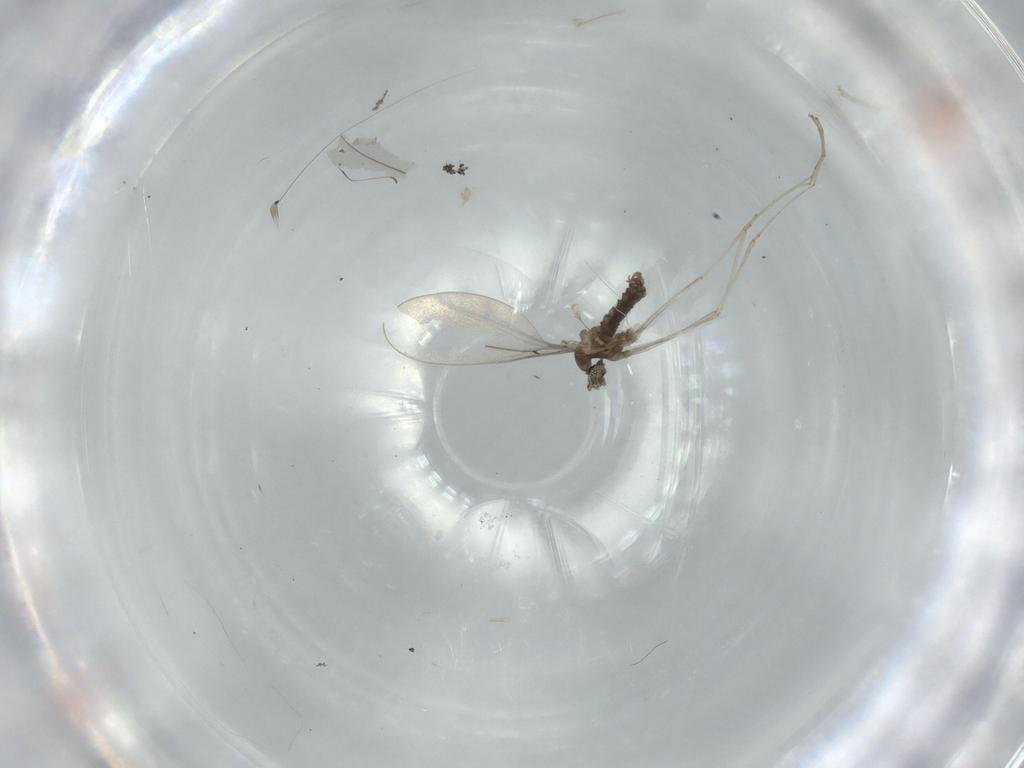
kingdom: Animalia
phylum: Arthropoda
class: Insecta
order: Diptera
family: Cecidomyiidae
